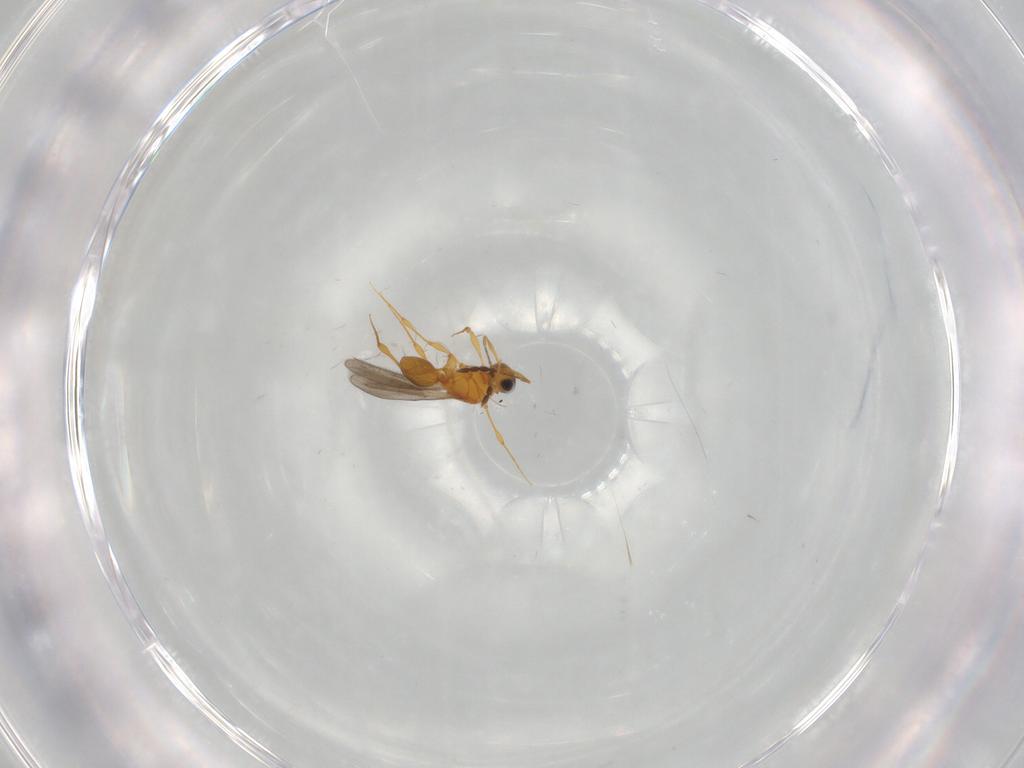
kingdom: Animalia
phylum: Arthropoda
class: Insecta
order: Hymenoptera
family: Platygastridae
